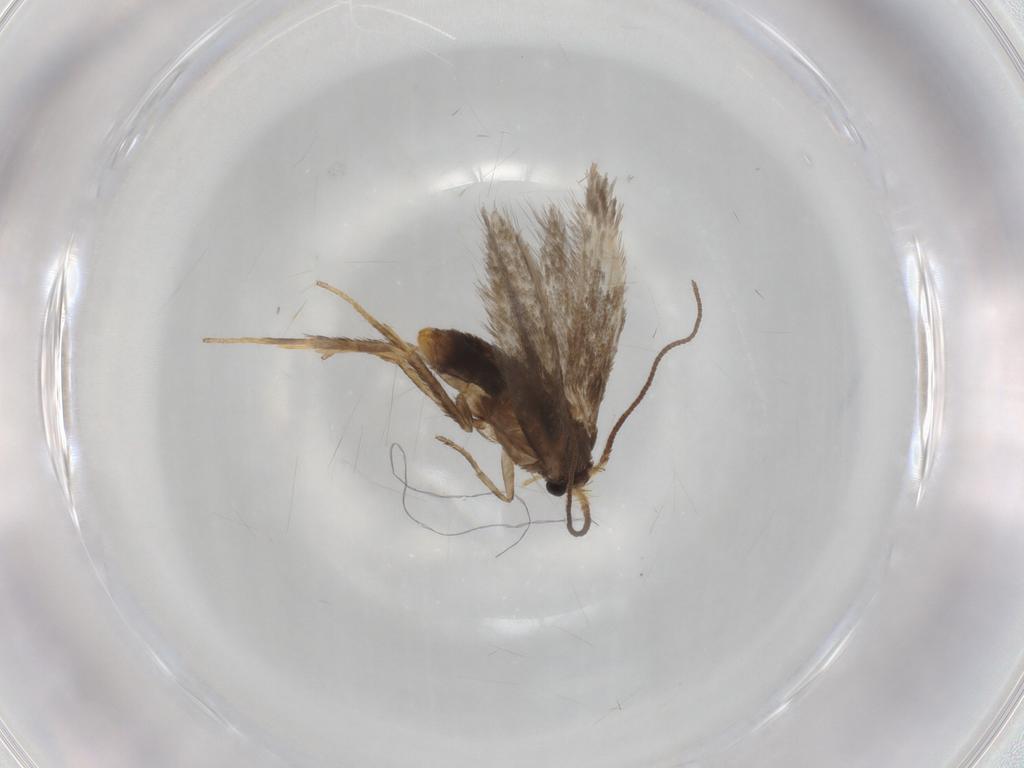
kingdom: Animalia
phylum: Arthropoda
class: Insecta
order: Lepidoptera
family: Nepticulidae
